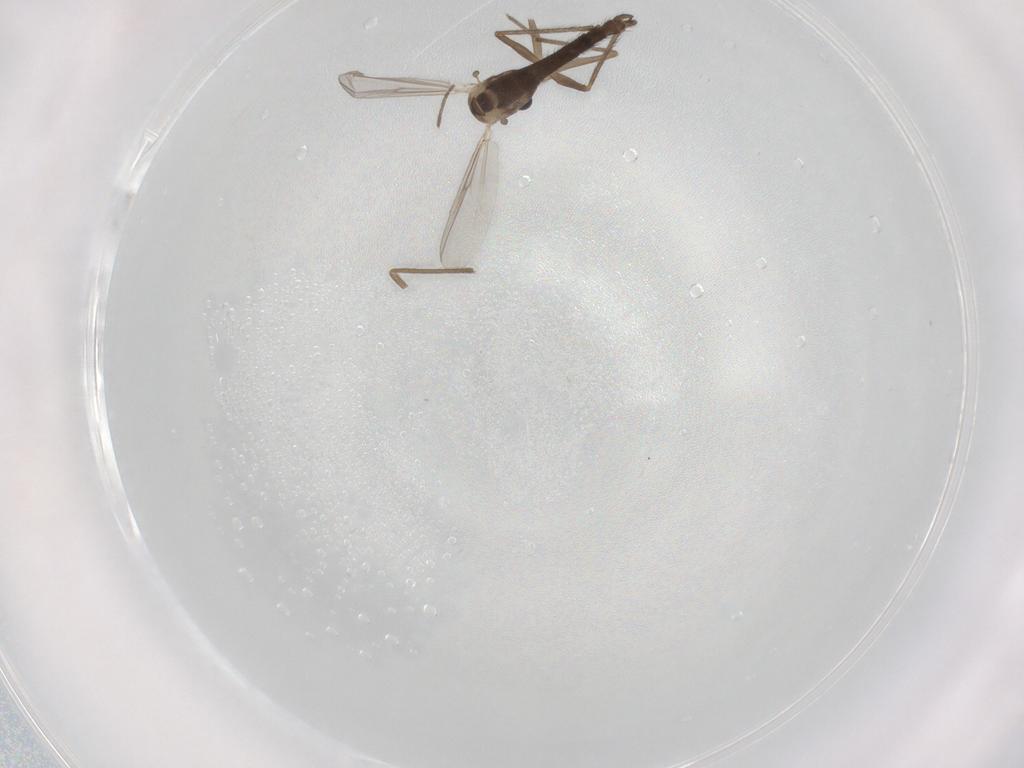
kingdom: Animalia
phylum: Arthropoda
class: Insecta
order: Diptera
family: Chironomidae
